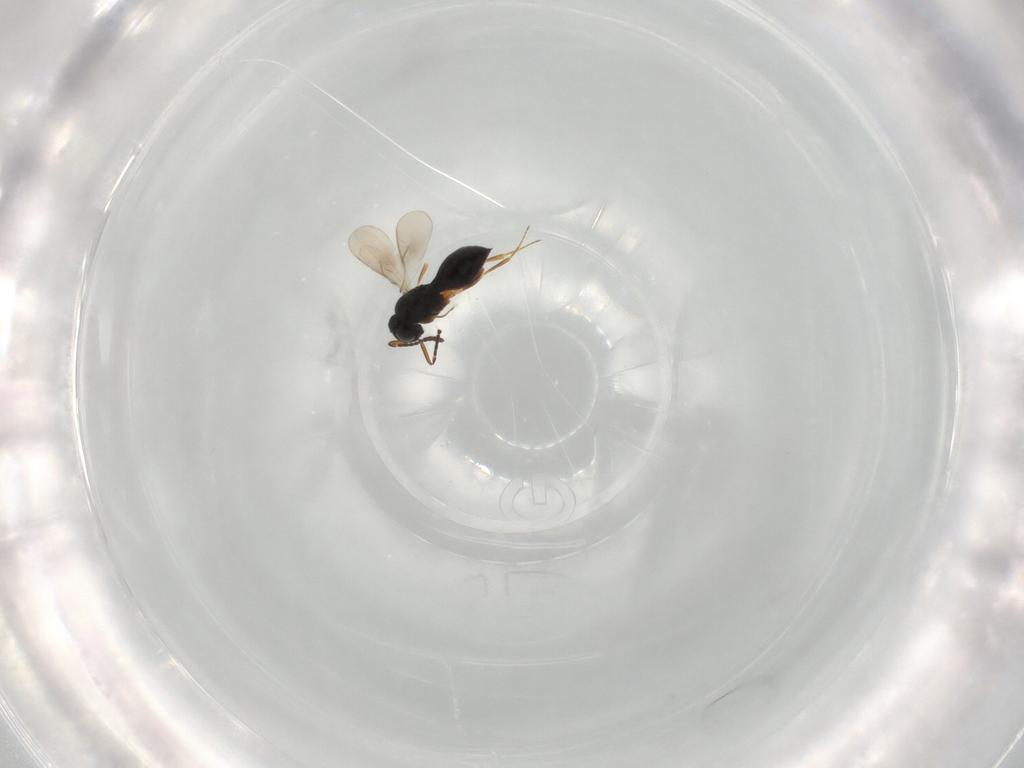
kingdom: Animalia
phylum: Arthropoda
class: Insecta
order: Hymenoptera
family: Scelionidae
